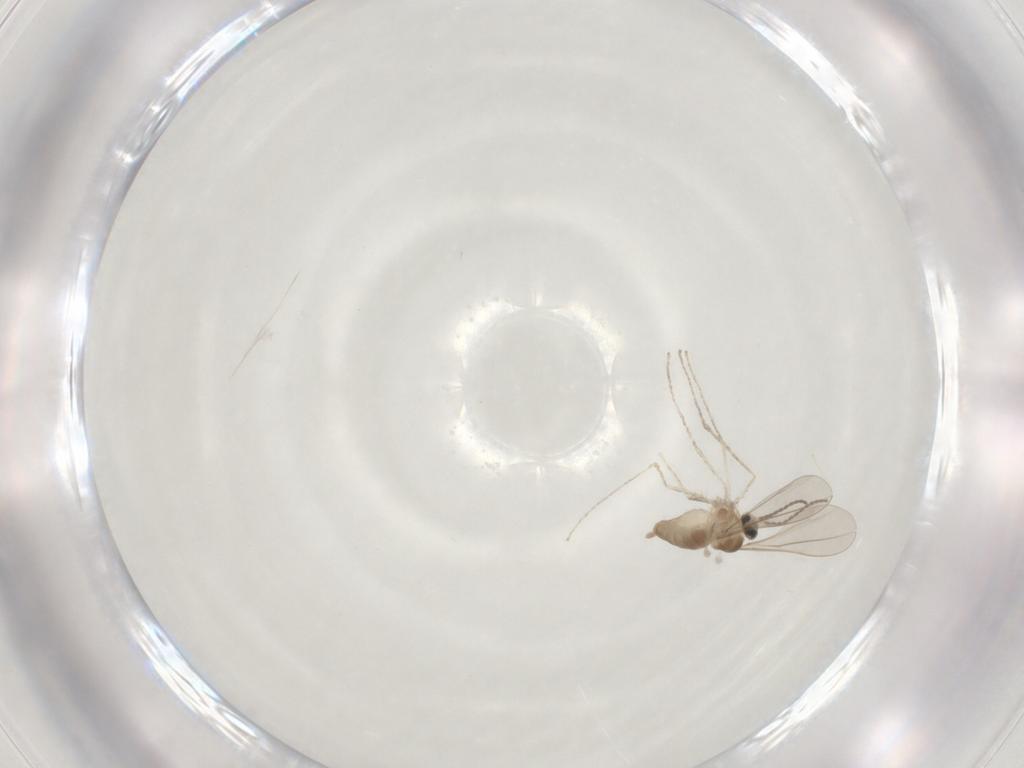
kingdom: Animalia
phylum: Arthropoda
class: Insecta
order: Diptera
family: Cecidomyiidae
